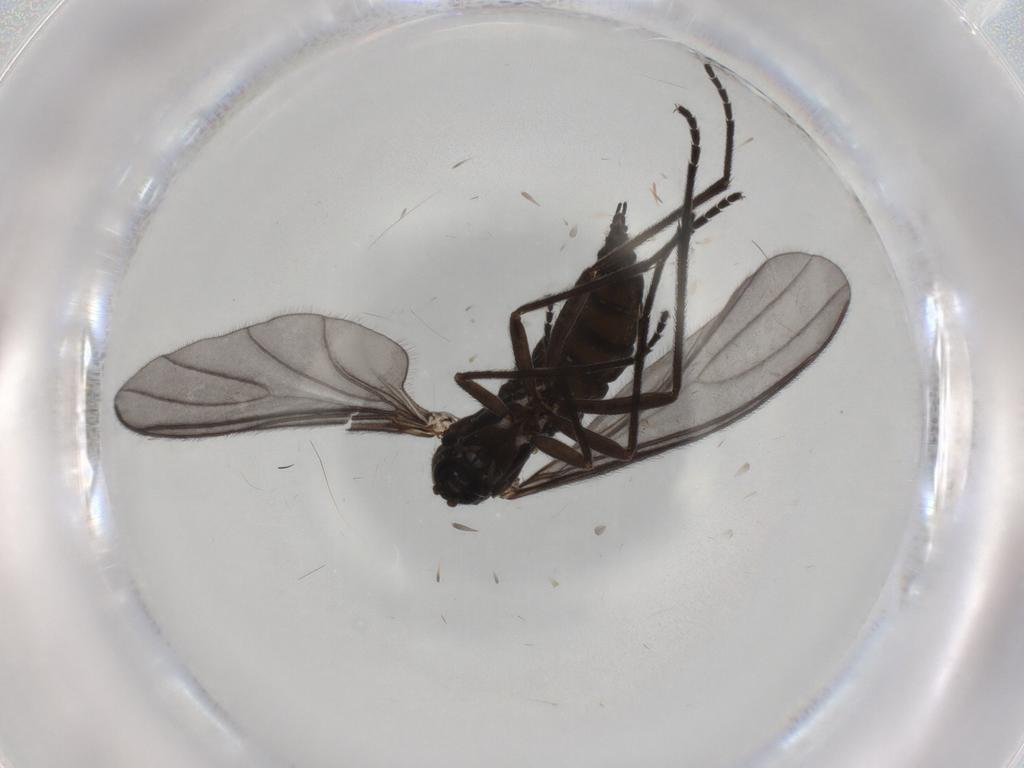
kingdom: Animalia
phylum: Arthropoda
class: Insecta
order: Diptera
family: Sciaridae
